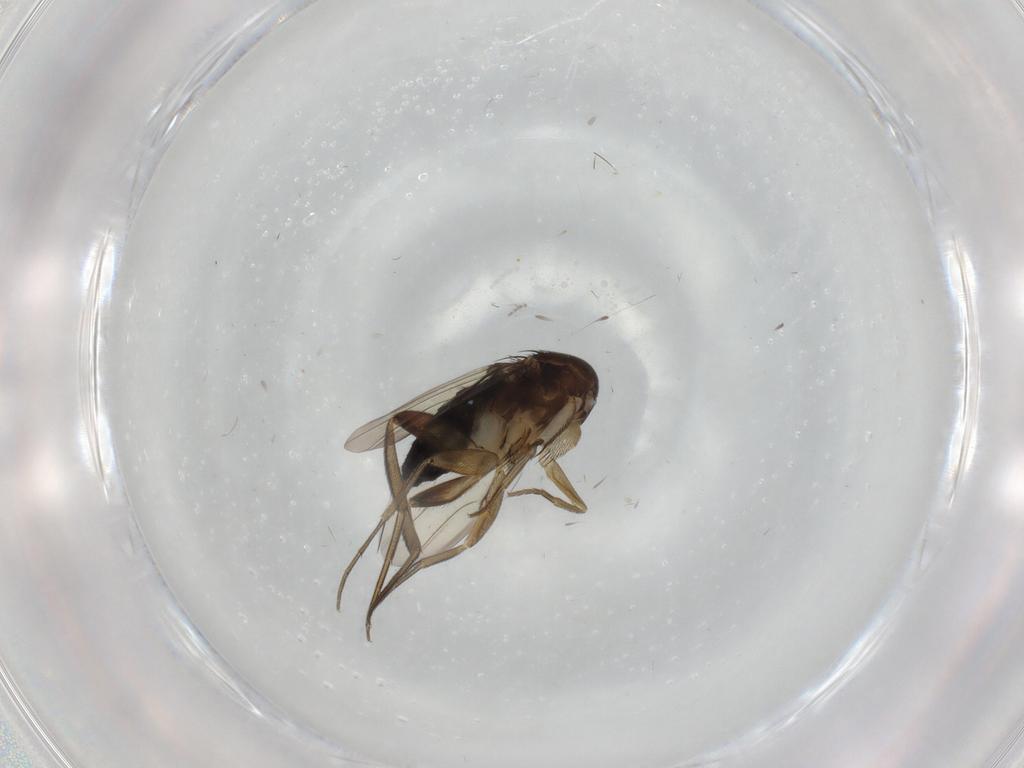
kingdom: Animalia
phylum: Arthropoda
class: Insecta
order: Diptera
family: Phoridae
